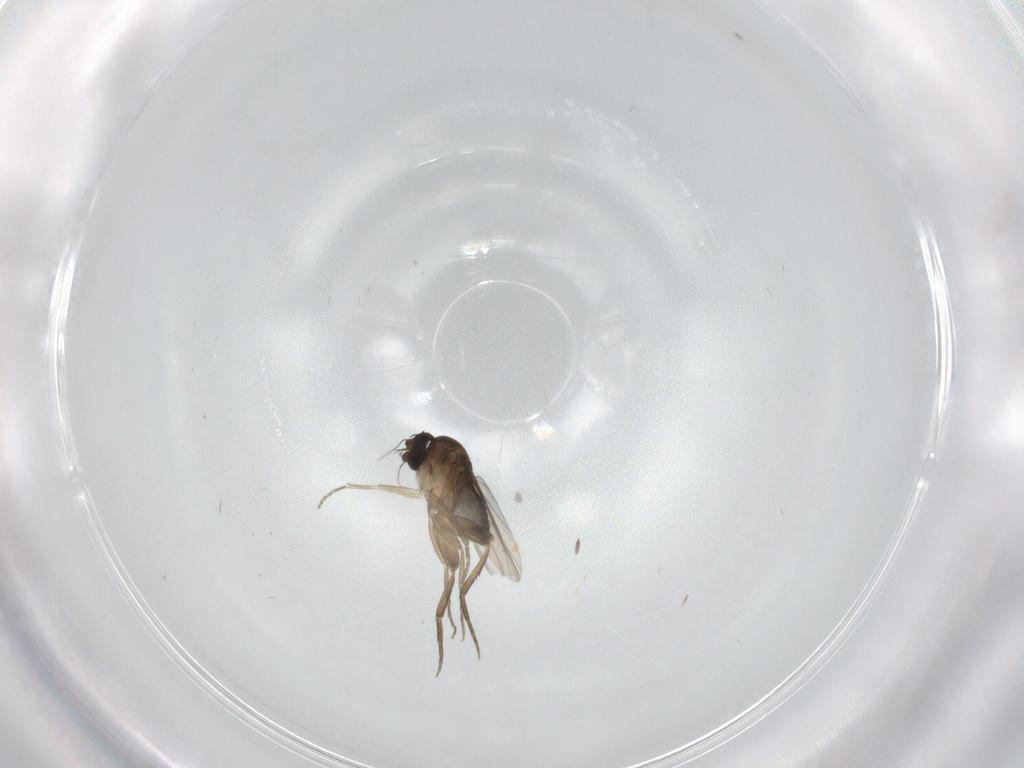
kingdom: Animalia
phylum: Arthropoda
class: Insecta
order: Diptera
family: Phoridae
